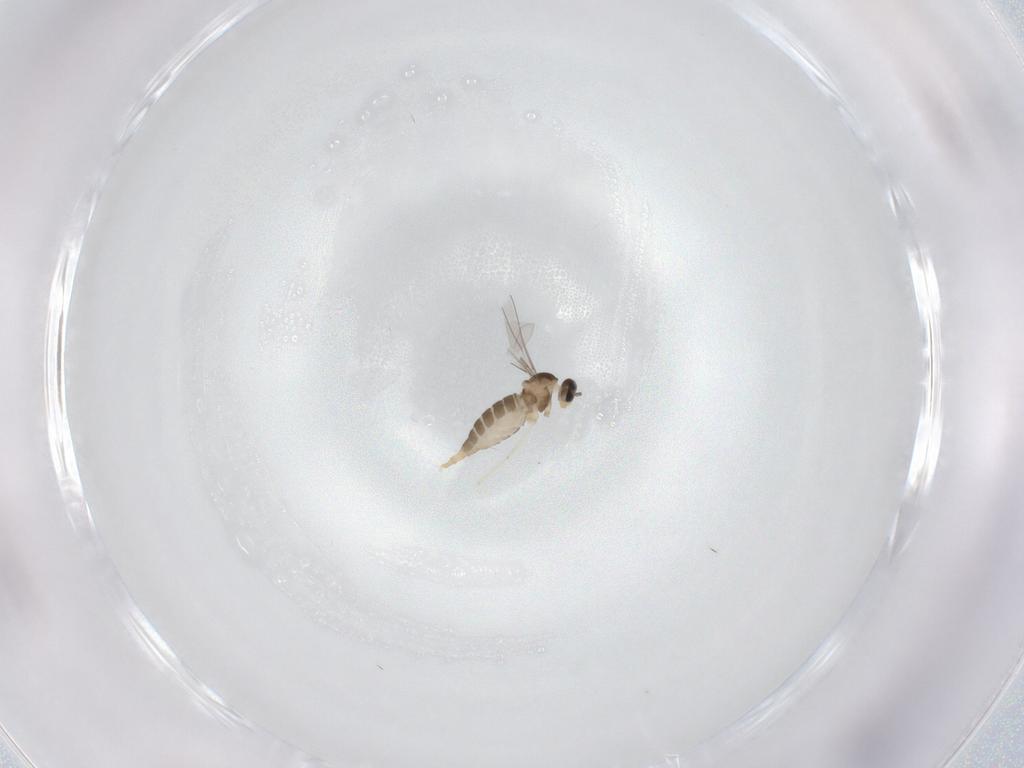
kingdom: Animalia
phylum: Arthropoda
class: Insecta
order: Diptera
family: Cecidomyiidae
